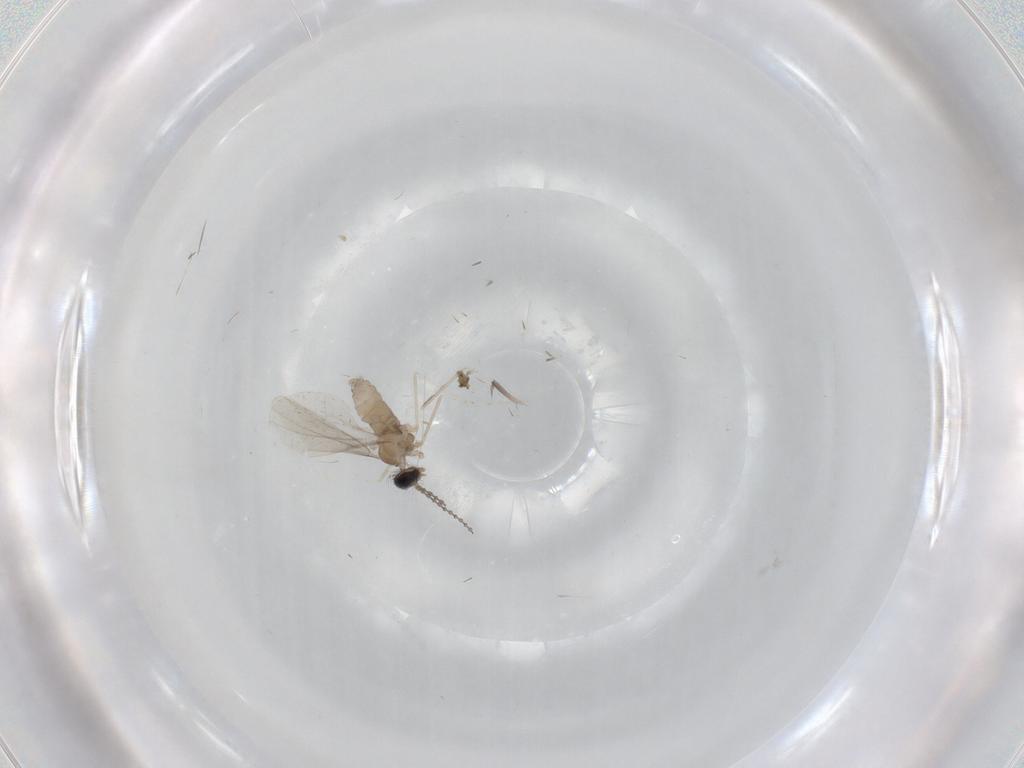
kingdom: Animalia
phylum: Arthropoda
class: Insecta
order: Diptera
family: Cecidomyiidae
